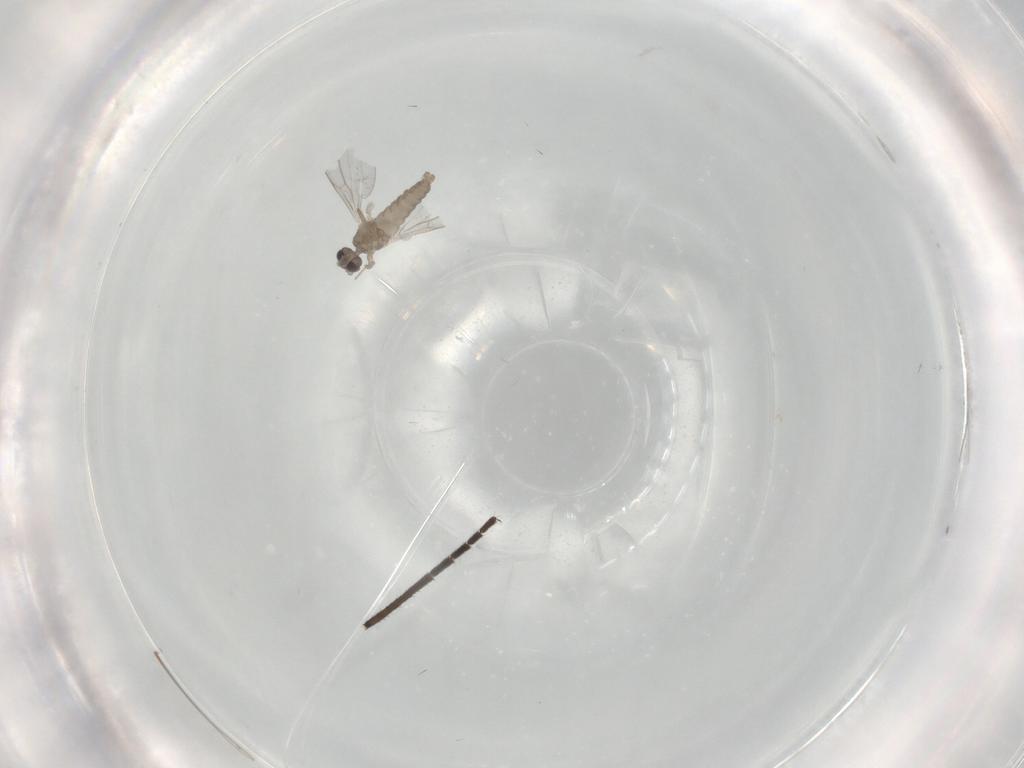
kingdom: Animalia
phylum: Arthropoda
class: Insecta
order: Diptera
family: Cecidomyiidae
